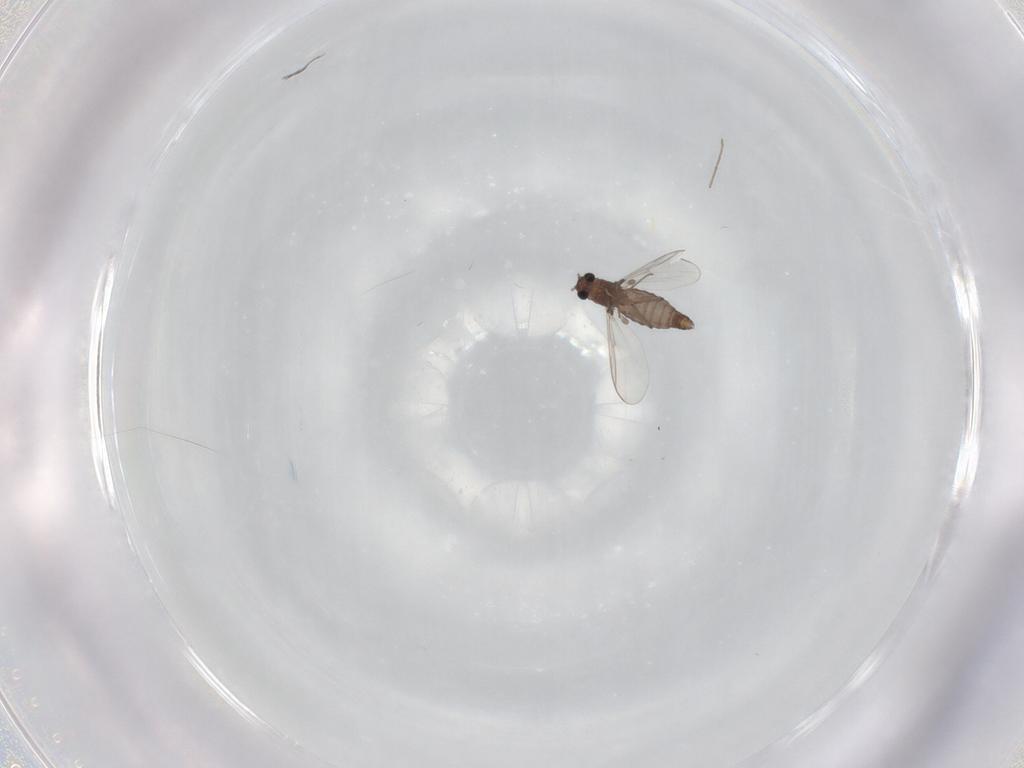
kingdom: Animalia
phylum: Arthropoda
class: Insecta
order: Diptera
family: Chironomidae
